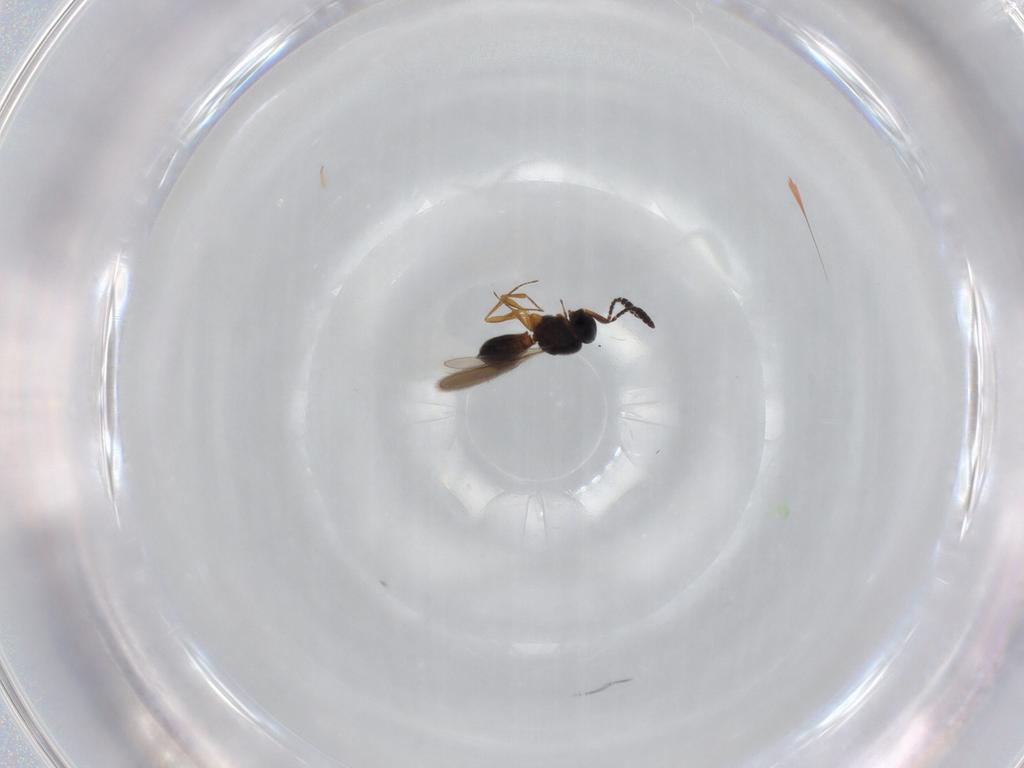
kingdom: Animalia
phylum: Arthropoda
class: Insecta
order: Hymenoptera
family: Scelionidae
